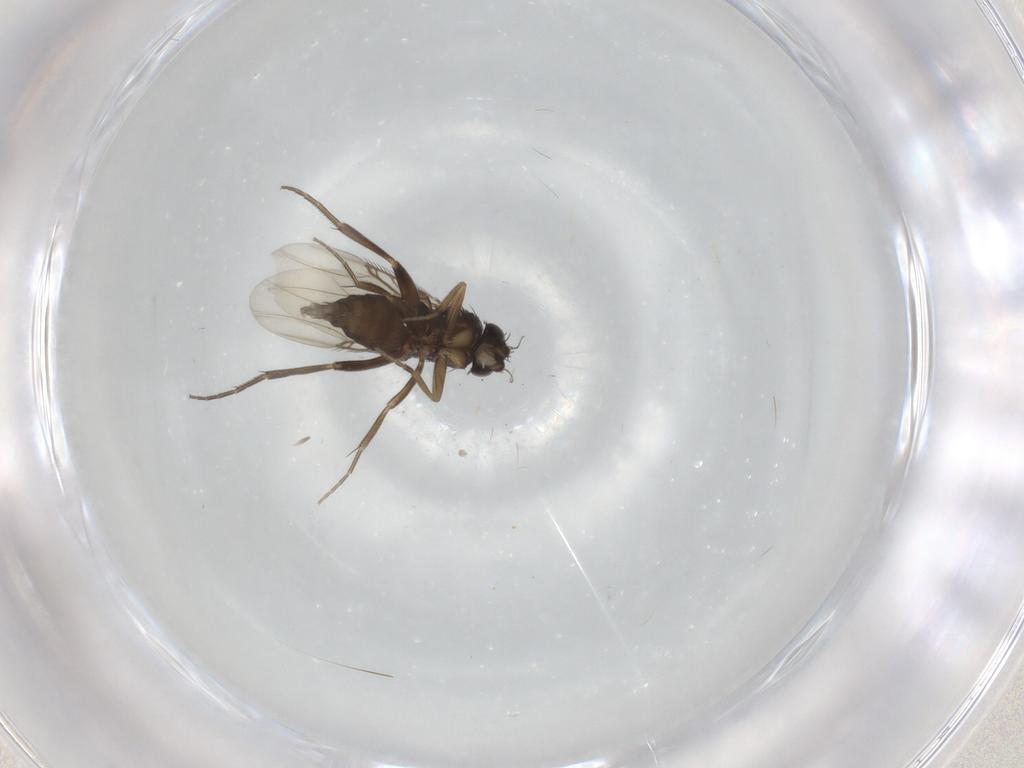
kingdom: Animalia
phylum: Arthropoda
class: Insecta
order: Diptera
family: Phoridae
